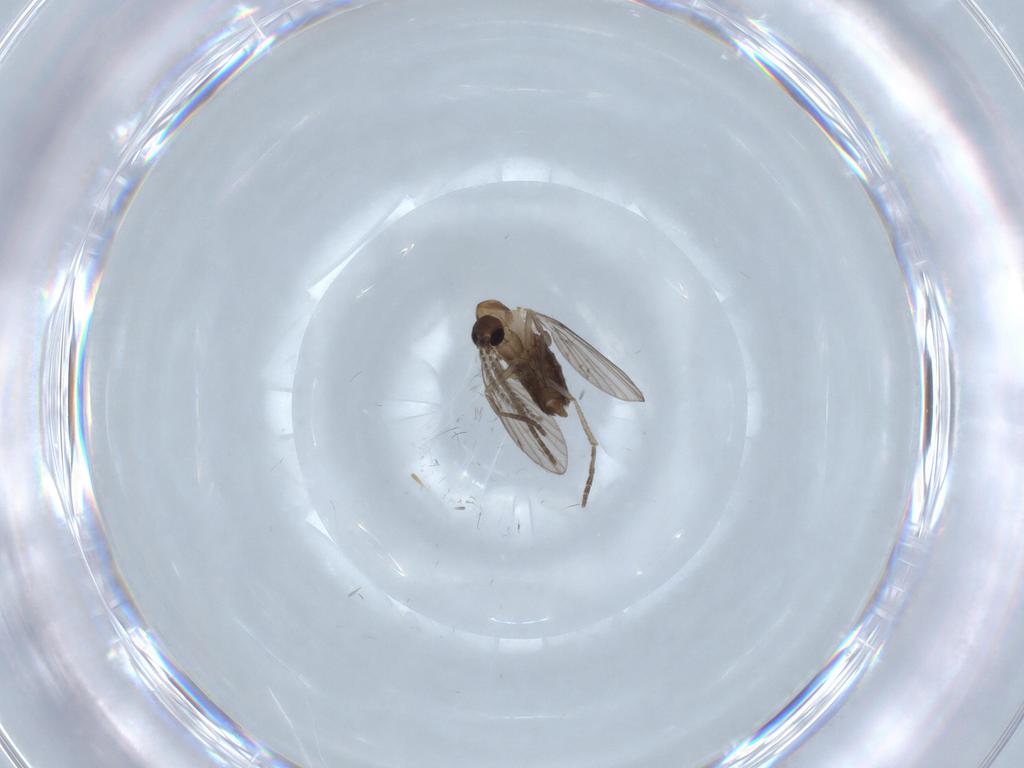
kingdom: Animalia
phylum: Arthropoda
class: Insecta
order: Diptera
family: Psychodidae
